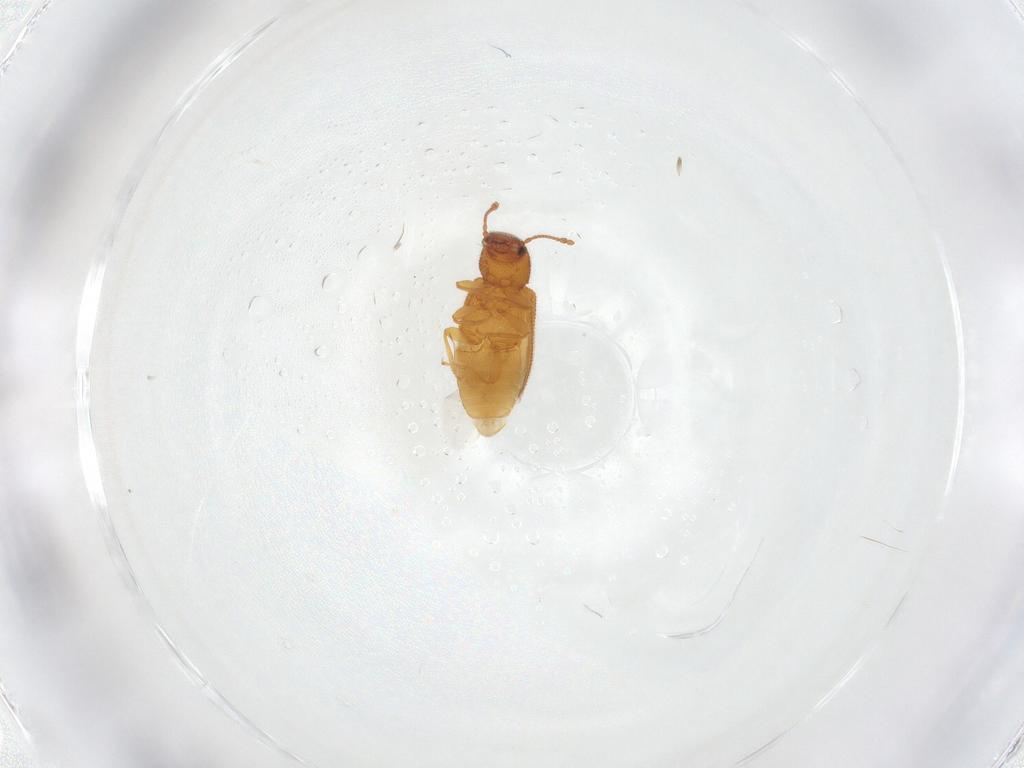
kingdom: Animalia
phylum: Arthropoda
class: Insecta
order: Coleoptera
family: Mycetophagidae
